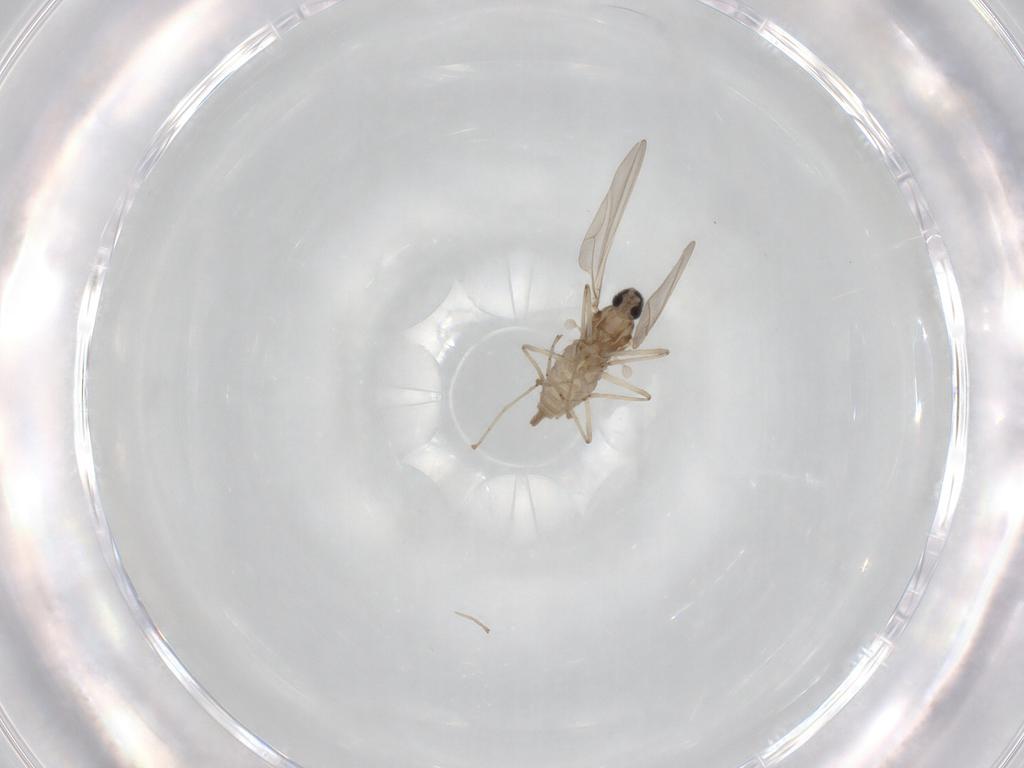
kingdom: Animalia
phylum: Arthropoda
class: Insecta
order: Diptera
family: Cecidomyiidae
